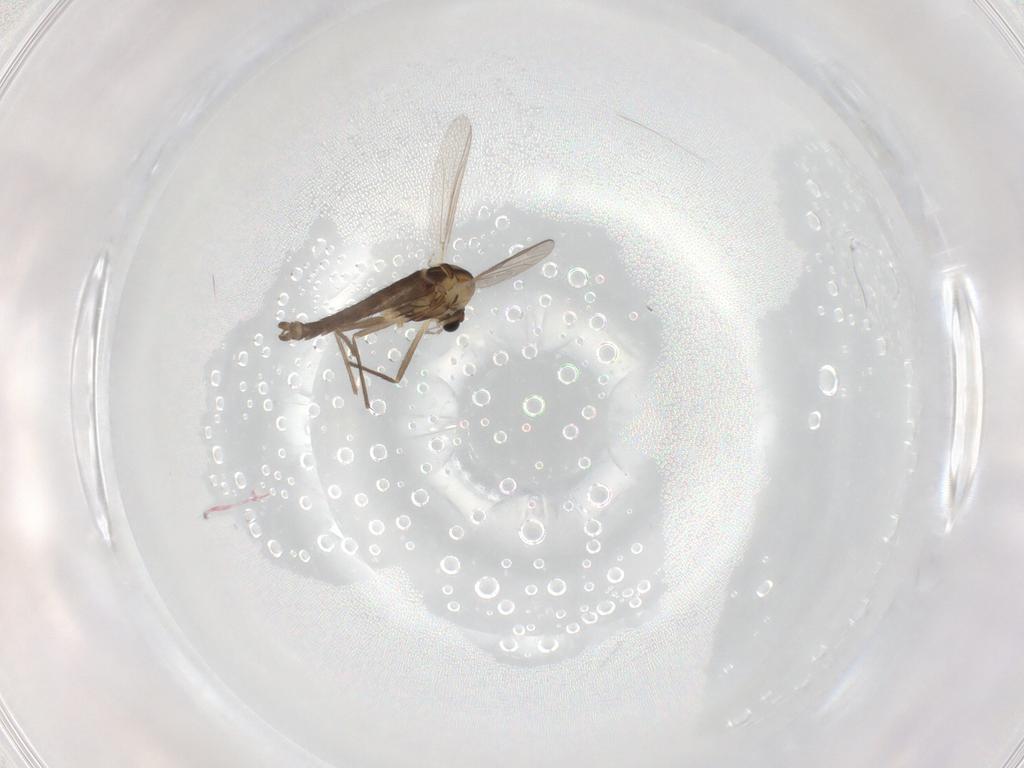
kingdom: Animalia
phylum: Arthropoda
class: Insecta
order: Diptera
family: Chironomidae
